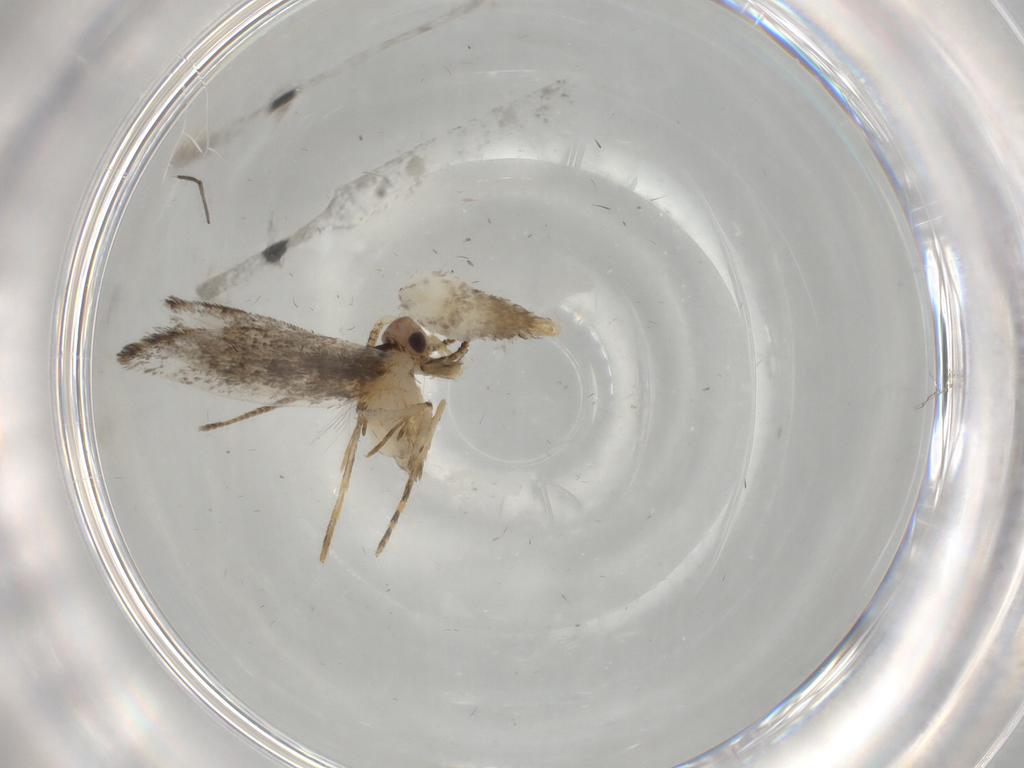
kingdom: Animalia
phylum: Arthropoda
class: Insecta
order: Lepidoptera
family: Tineidae
